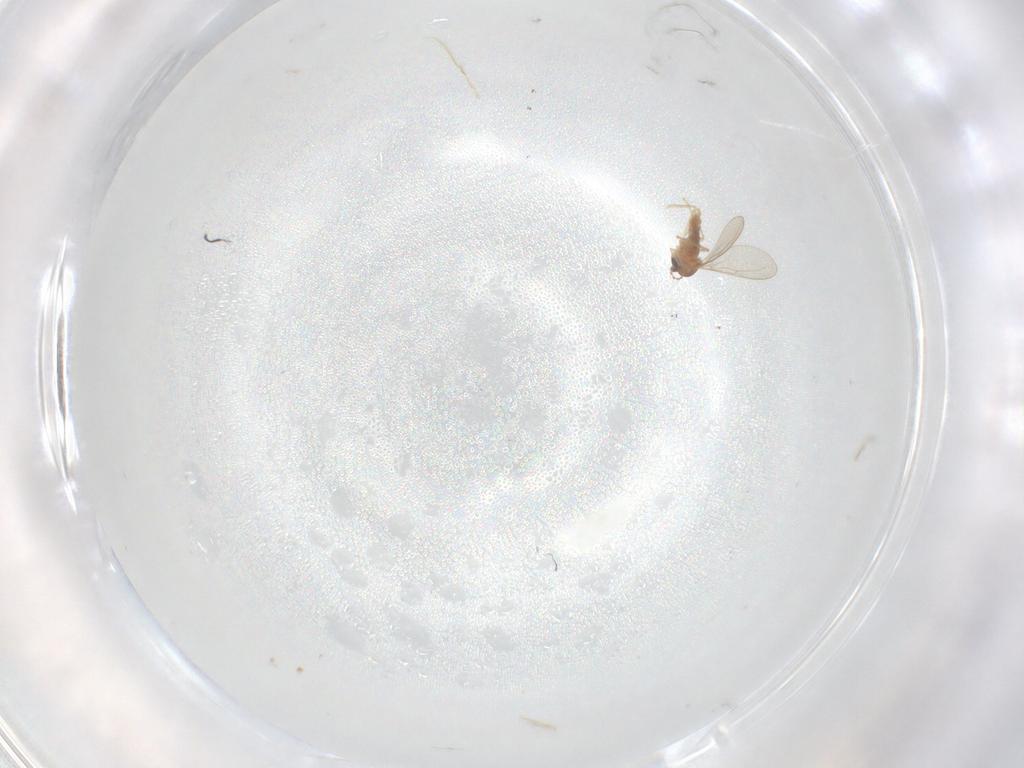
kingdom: Animalia
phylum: Arthropoda
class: Insecta
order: Diptera
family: Cecidomyiidae
